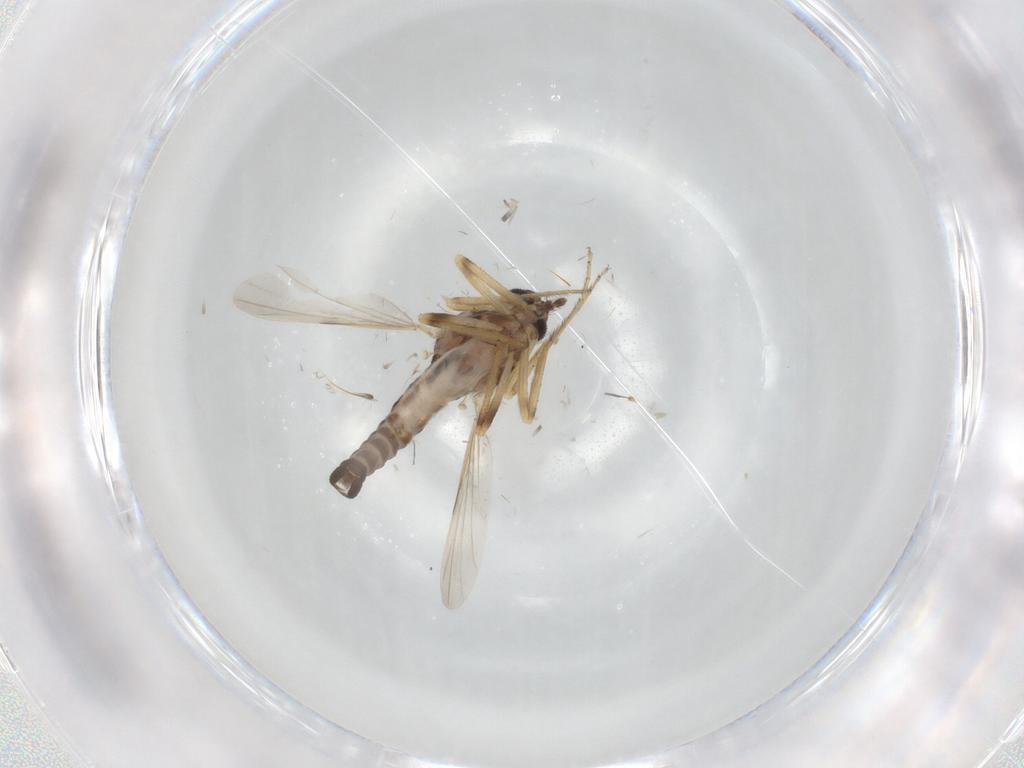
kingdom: Animalia
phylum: Arthropoda
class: Insecta
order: Diptera
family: Ceratopogonidae
